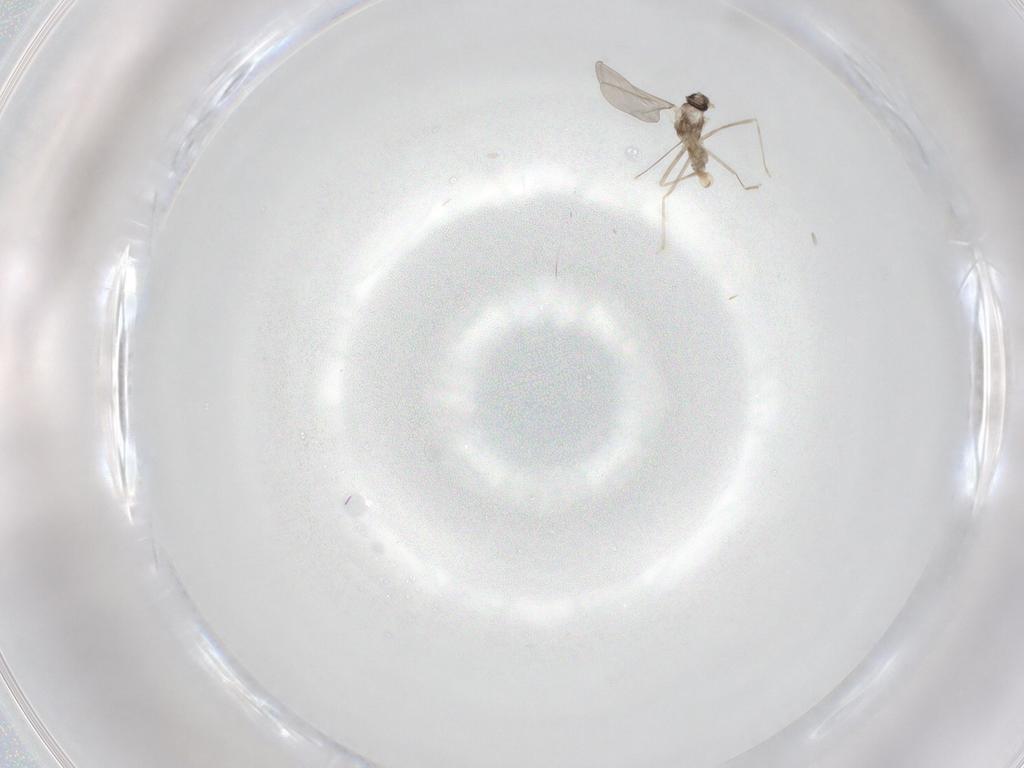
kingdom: Animalia
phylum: Arthropoda
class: Insecta
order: Diptera
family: Cecidomyiidae
